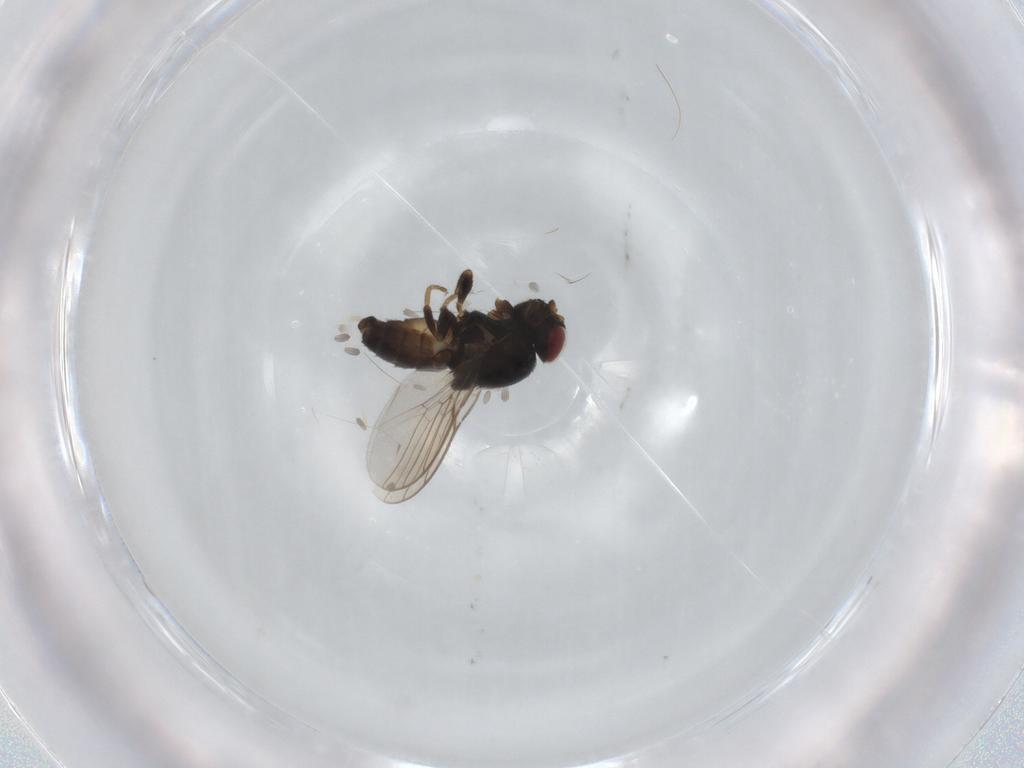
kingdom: Animalia
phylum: Arthropoda
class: Insecta
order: Diptera
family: Chloropidae
